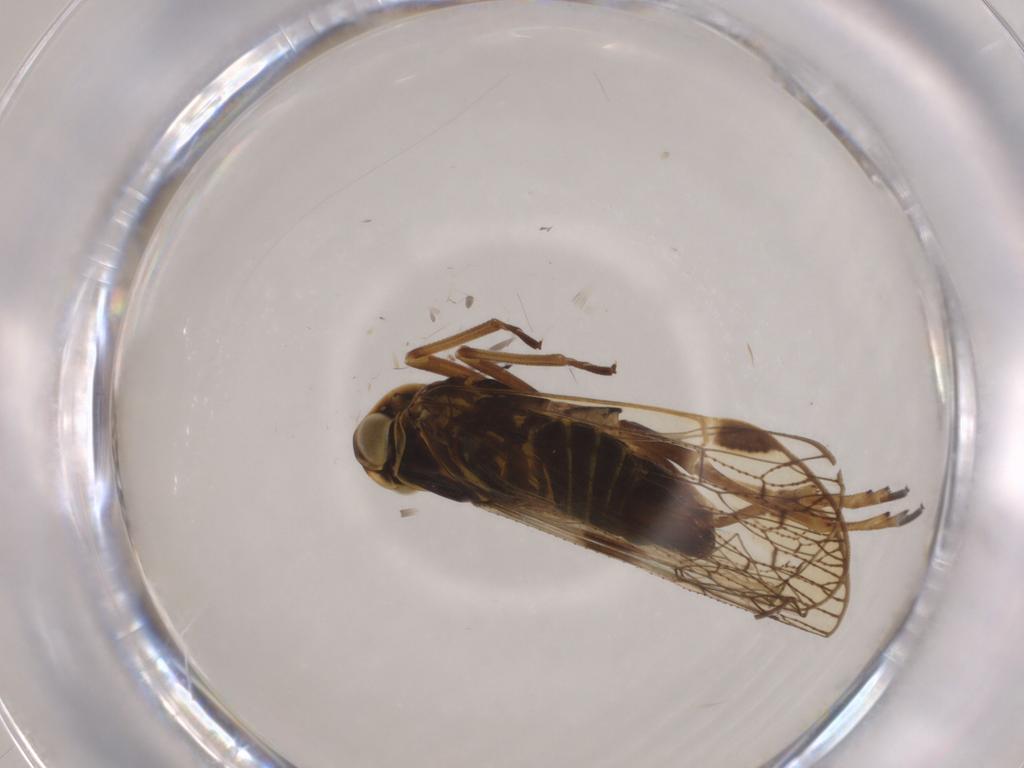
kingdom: Animalia
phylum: Arthropoda
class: Insecta
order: Hemiptera
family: Cixiidae
